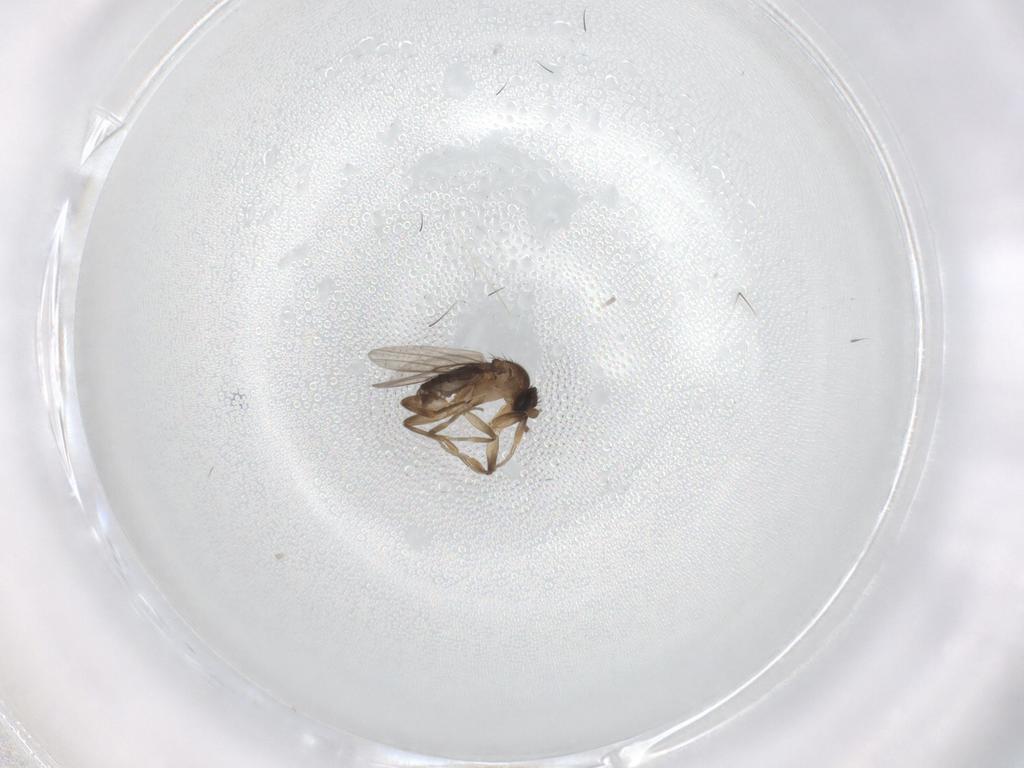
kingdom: Animalia
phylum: Arthropoda
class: Insecta
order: Diptera
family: Phoridae
